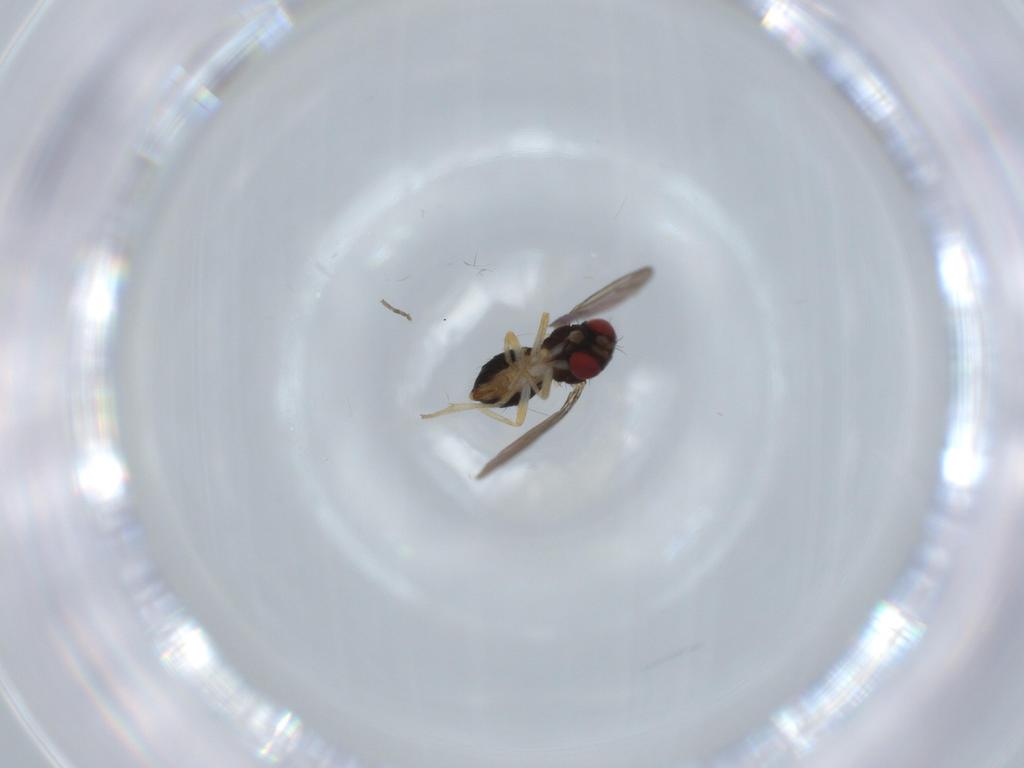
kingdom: Animalia
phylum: Arthropoda
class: Insecta
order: Diptera
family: Drosophilidae
